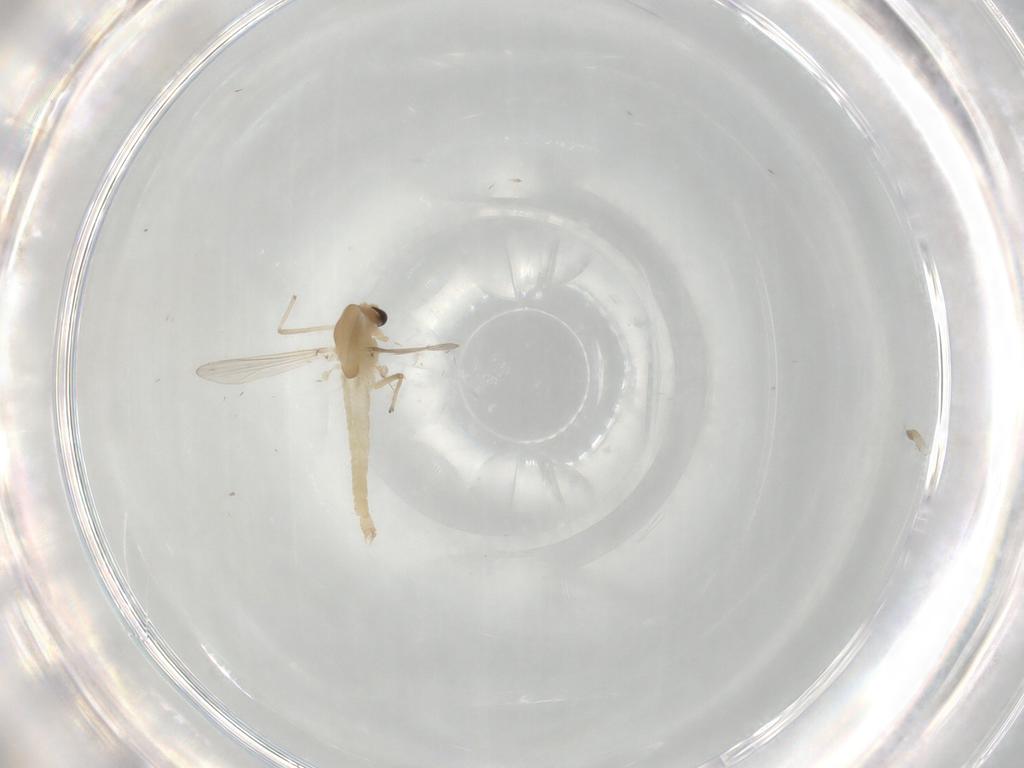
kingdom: Animalia
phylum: Arthropoda
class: Insecta
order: Diptera
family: Chironomidae
